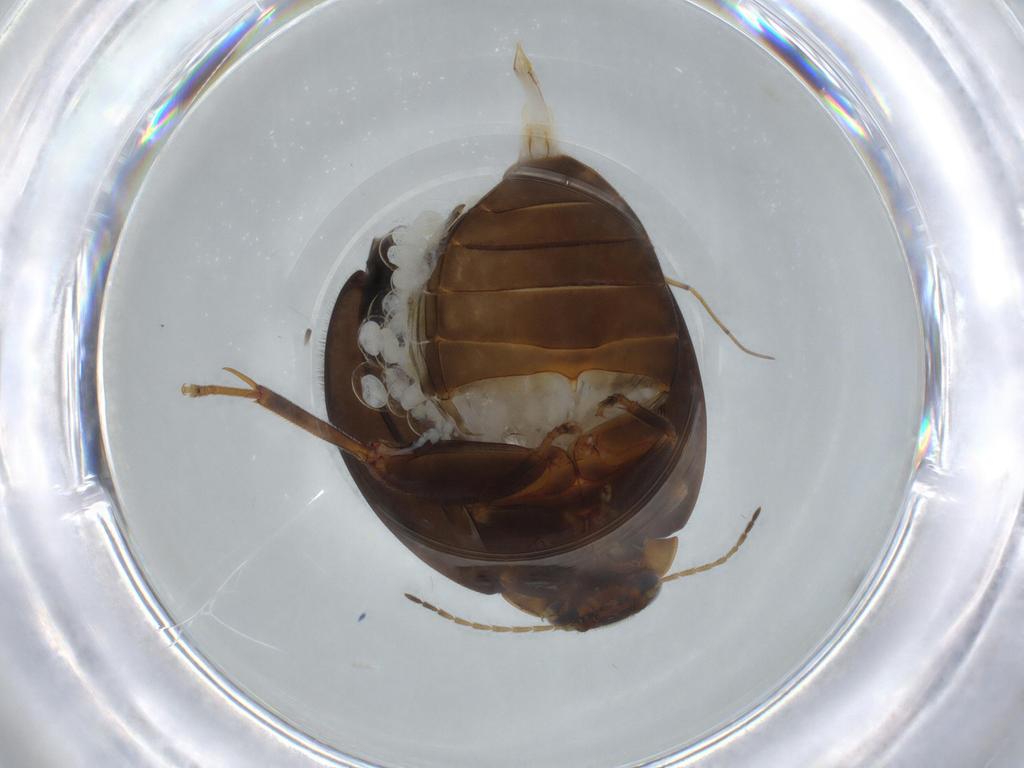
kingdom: Animalia
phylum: Arthropoda
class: Insecta
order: Coleoptera
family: Scirtidae
